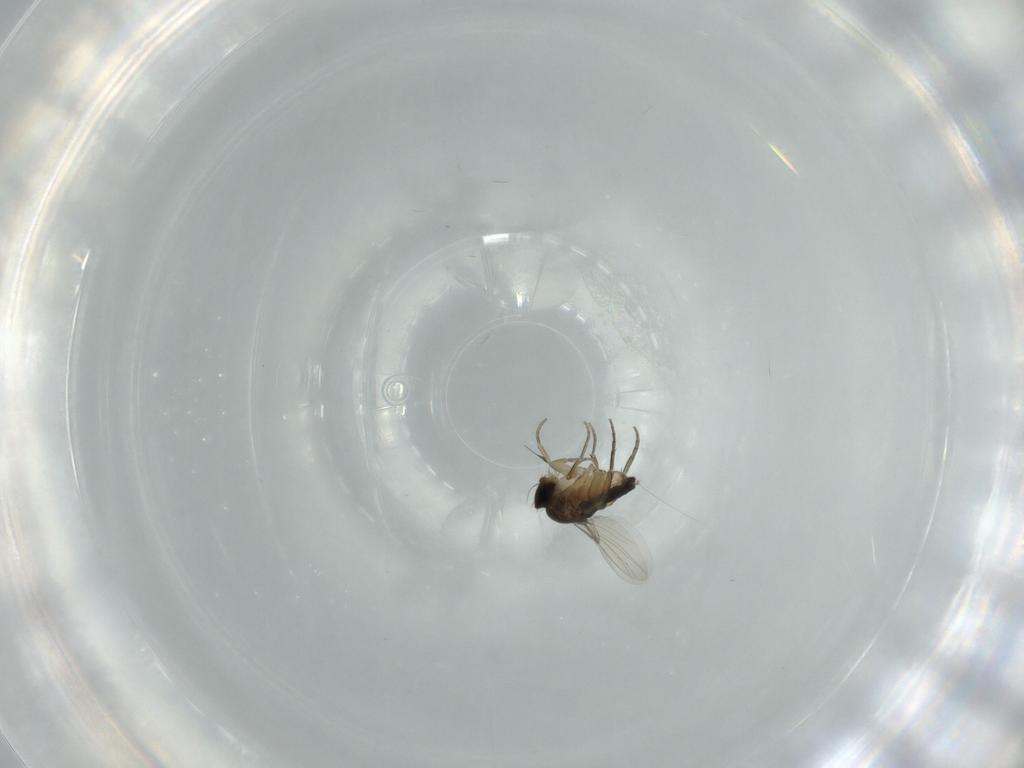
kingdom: Animalia
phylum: Arthropoda
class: Insecta
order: Diptera
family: Phoridae
